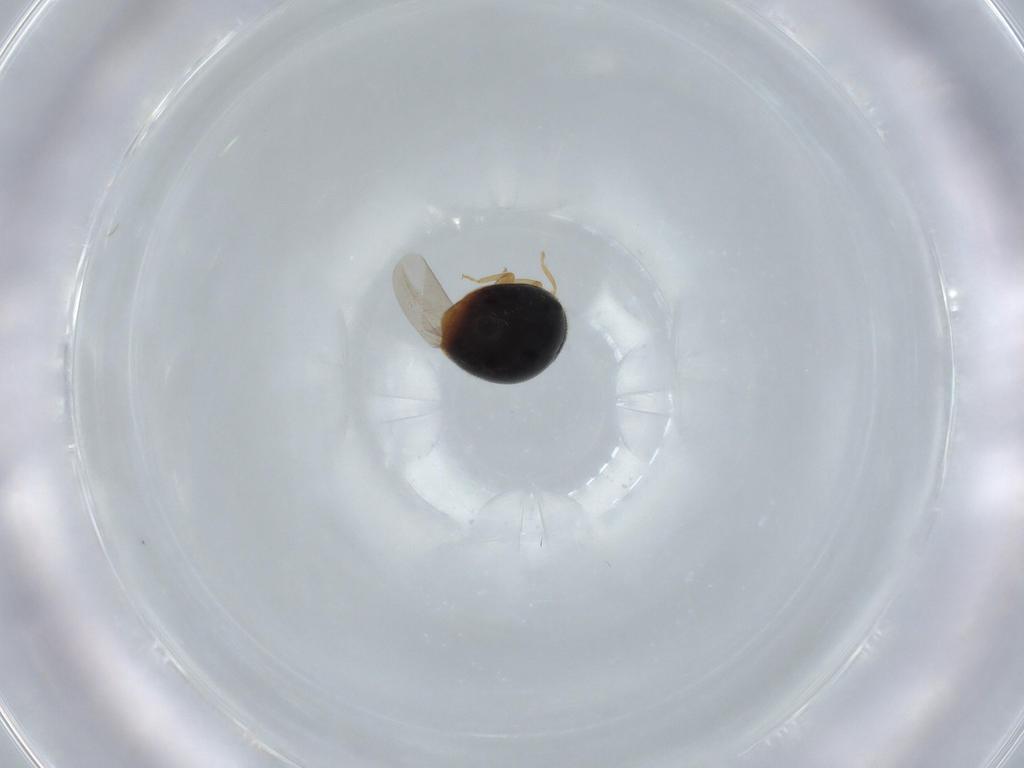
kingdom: Animalia
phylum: Arthropoda
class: Insecta
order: Coleoptera
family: Coccinellidae
